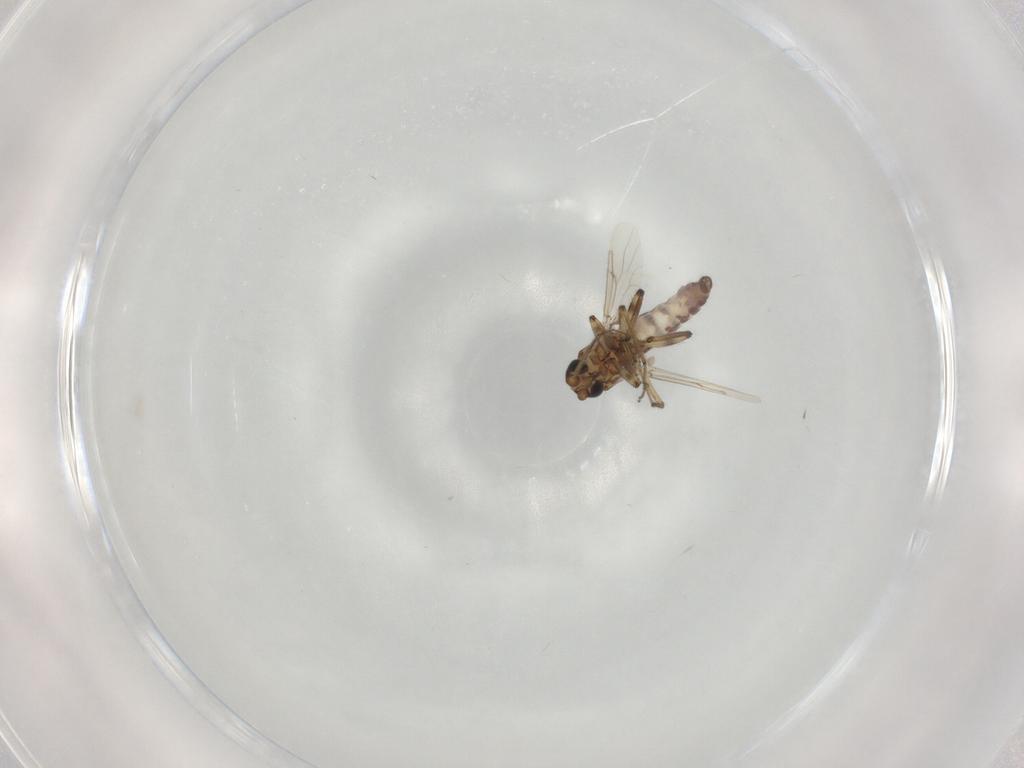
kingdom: Animalia
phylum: Arthropoda
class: Insecta
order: Diptera
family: Ceratopogonidae
